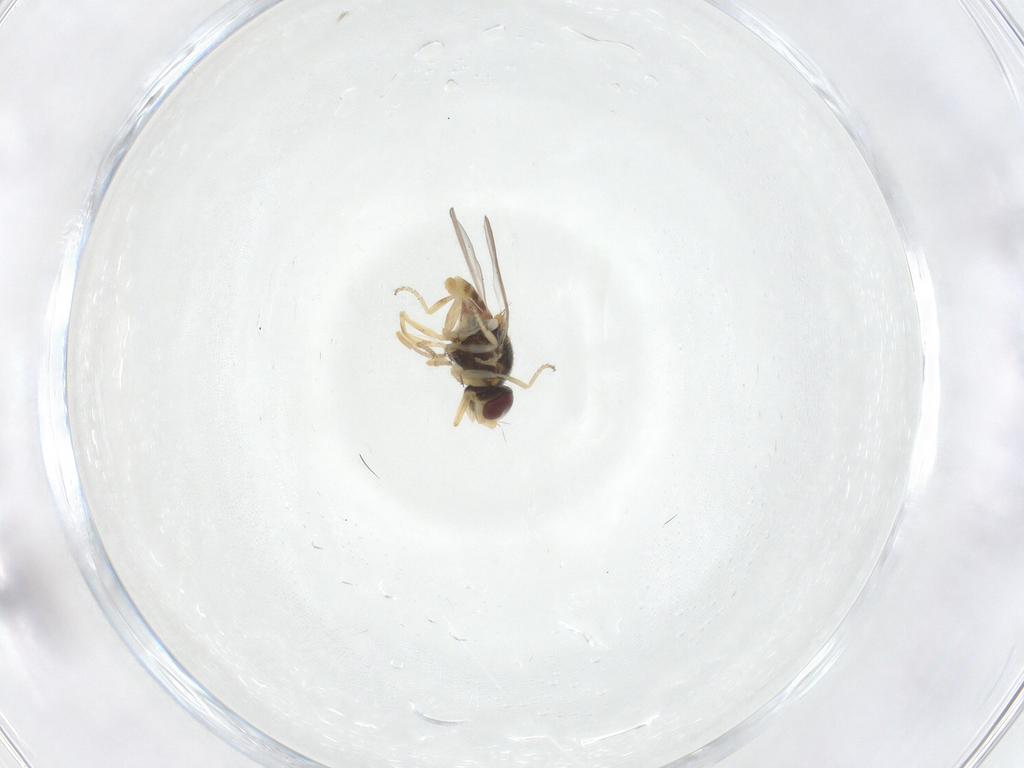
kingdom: Animalia
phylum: Arthropoda
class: Insecta
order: Diptera
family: Chloropidae
